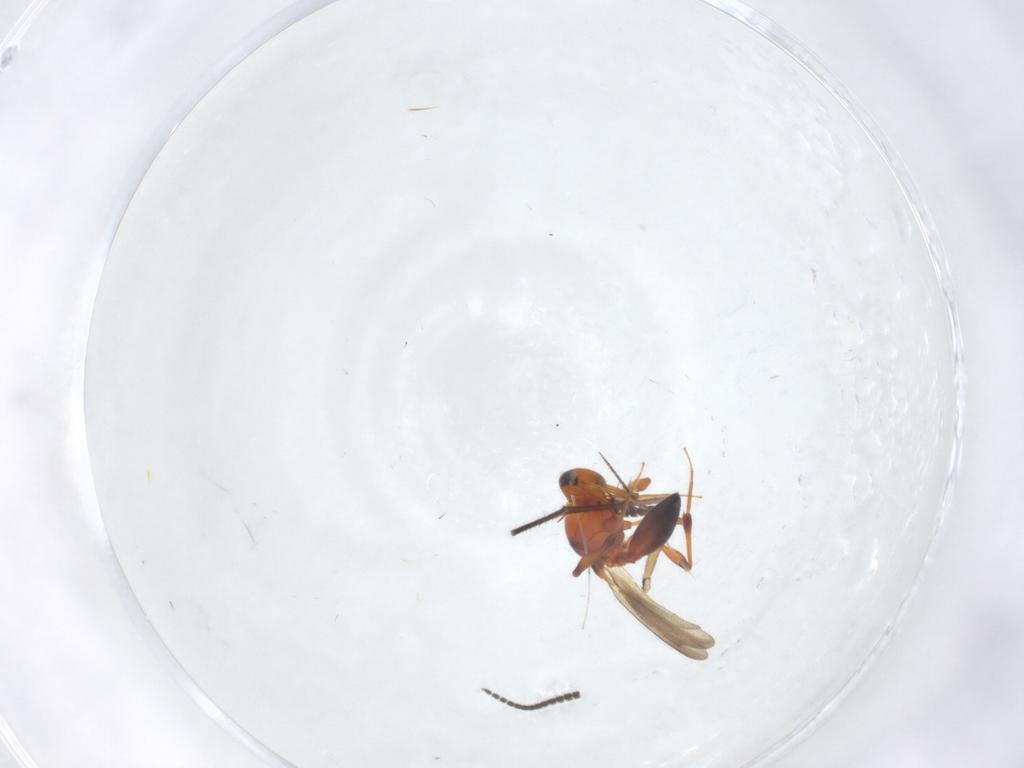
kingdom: Animalia
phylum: Arthropoda
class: Insecta
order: Hymenoptera
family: Platygastridae
